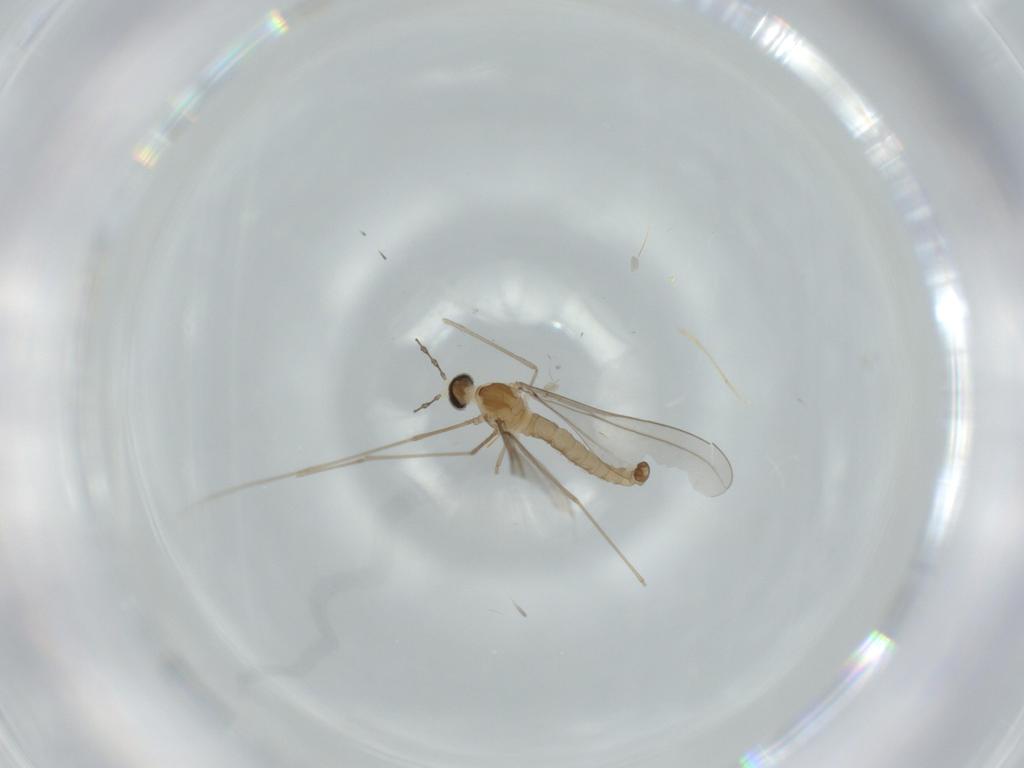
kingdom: Animalia
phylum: Arthropoda
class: Insecta
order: Diptera
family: Cecidomyiidae
